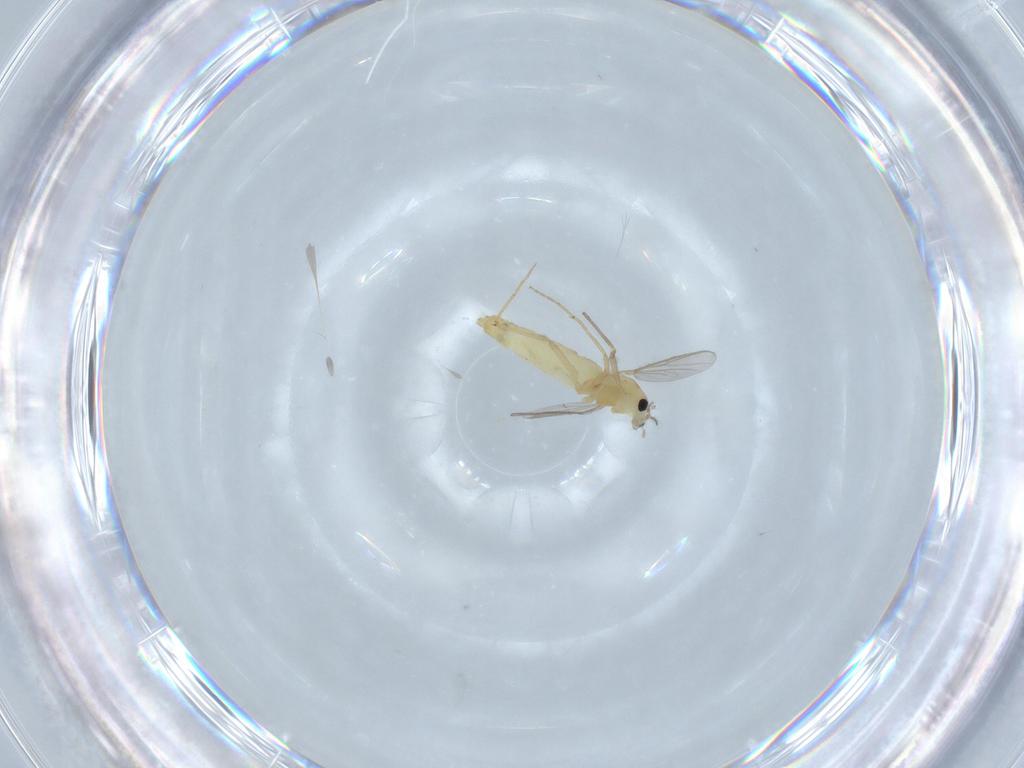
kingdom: Animalia
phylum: Arthropoda
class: Insecta
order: Diptera
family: Chironomidae
